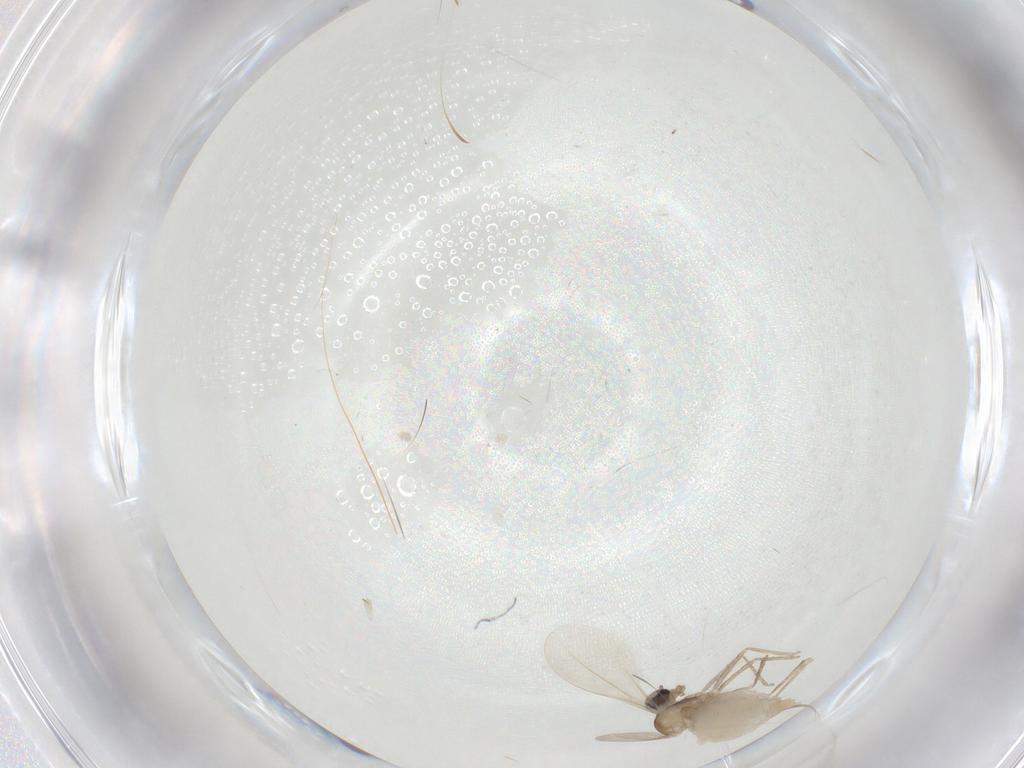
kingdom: Animalia
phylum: Arthropoda
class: Insecta
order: Diptera
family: Cecidomyiidae
